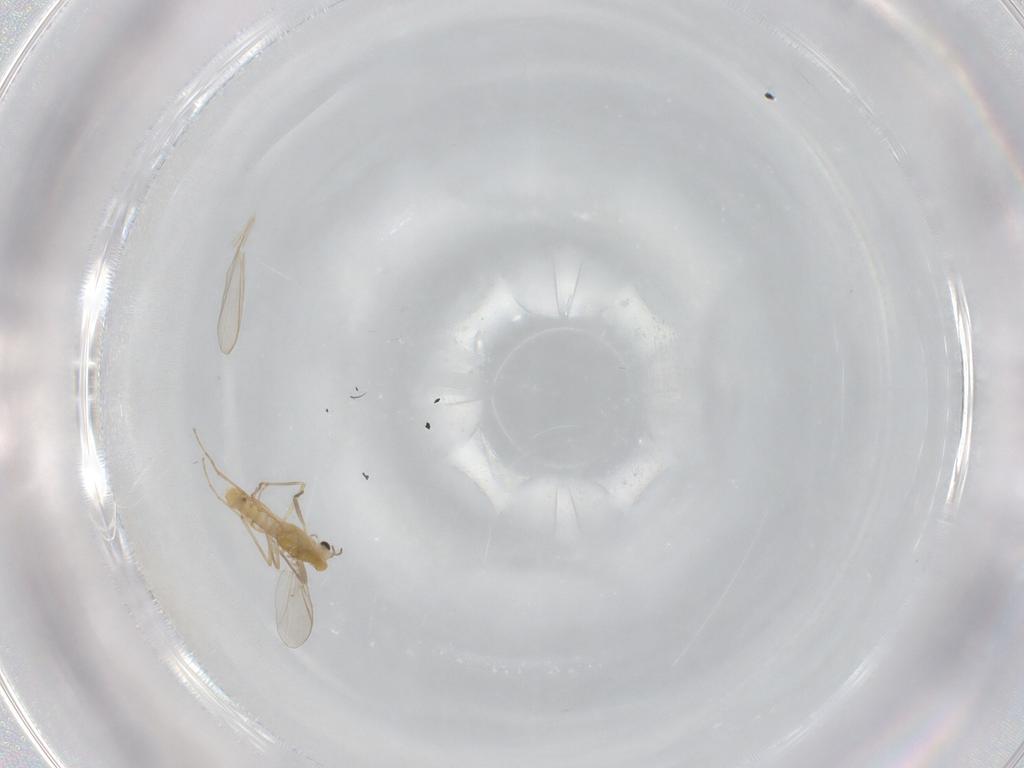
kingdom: Animalia
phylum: Arthropoda
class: Insecta
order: Diptera
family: Chironomidae
